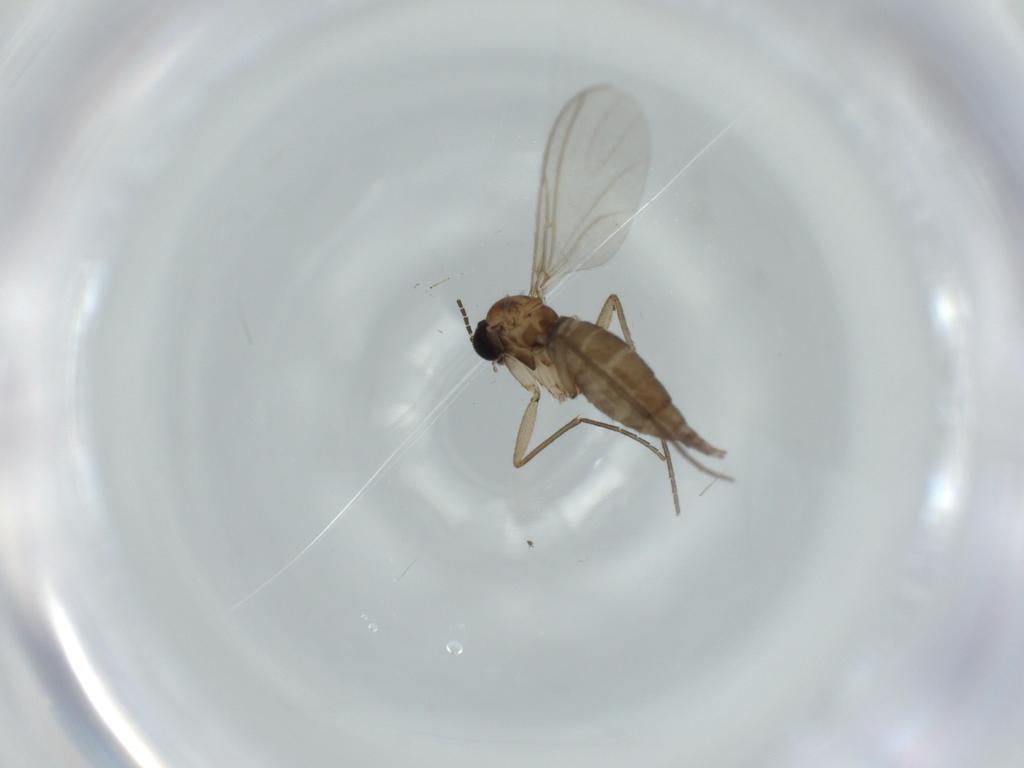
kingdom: Animalia
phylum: Arthropoda
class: Insecta
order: Diptera
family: Sciaridae
